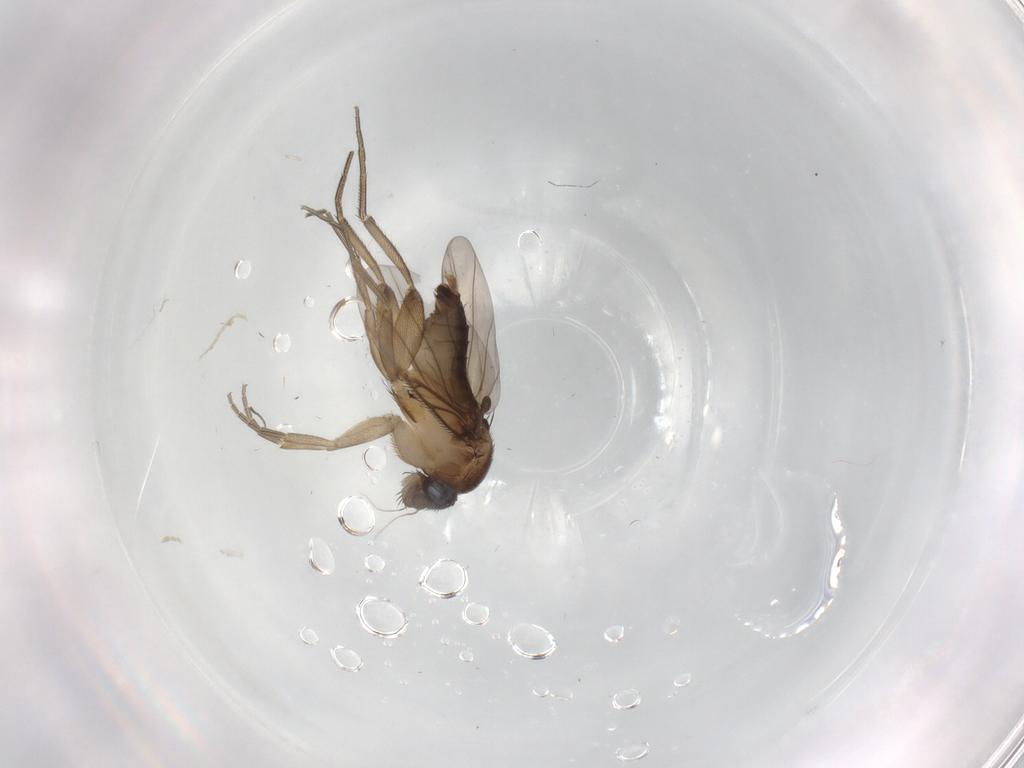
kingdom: Animalia
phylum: Arthropoda
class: Insecta
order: Diptera
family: Phoridae
